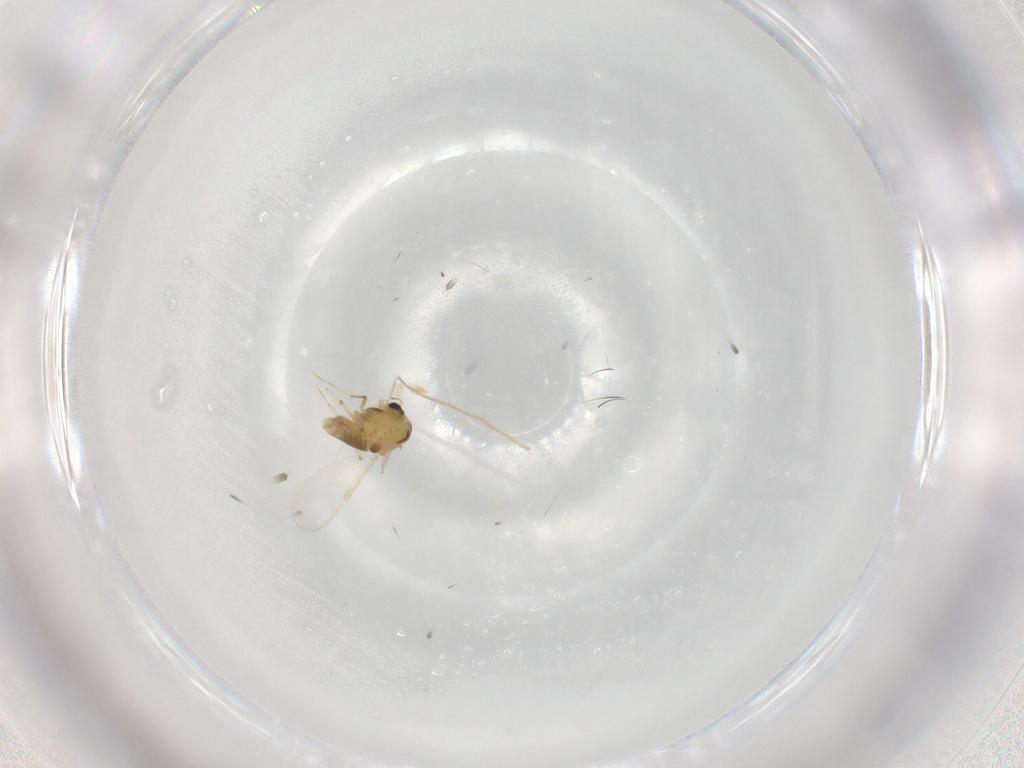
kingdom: Animalia
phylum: Arthropoda
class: Insecta
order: Diptera
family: Chironomidae
